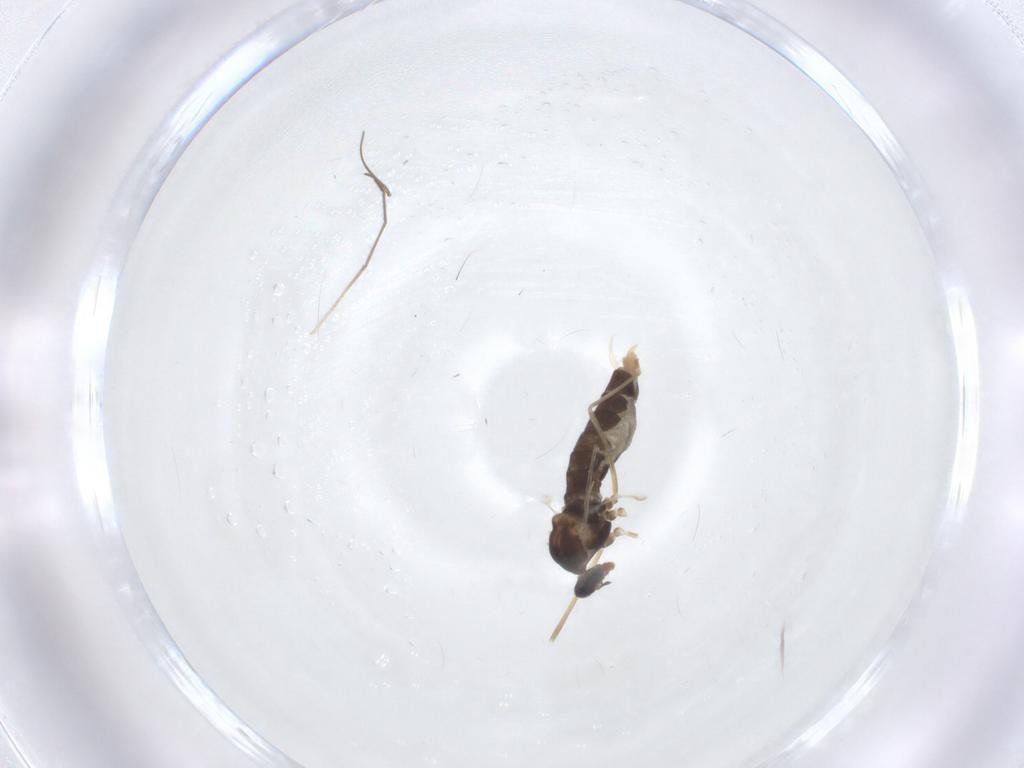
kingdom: Animalia
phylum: Arthropoda
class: Insecta
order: Diptera
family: Cecidomyiidae
